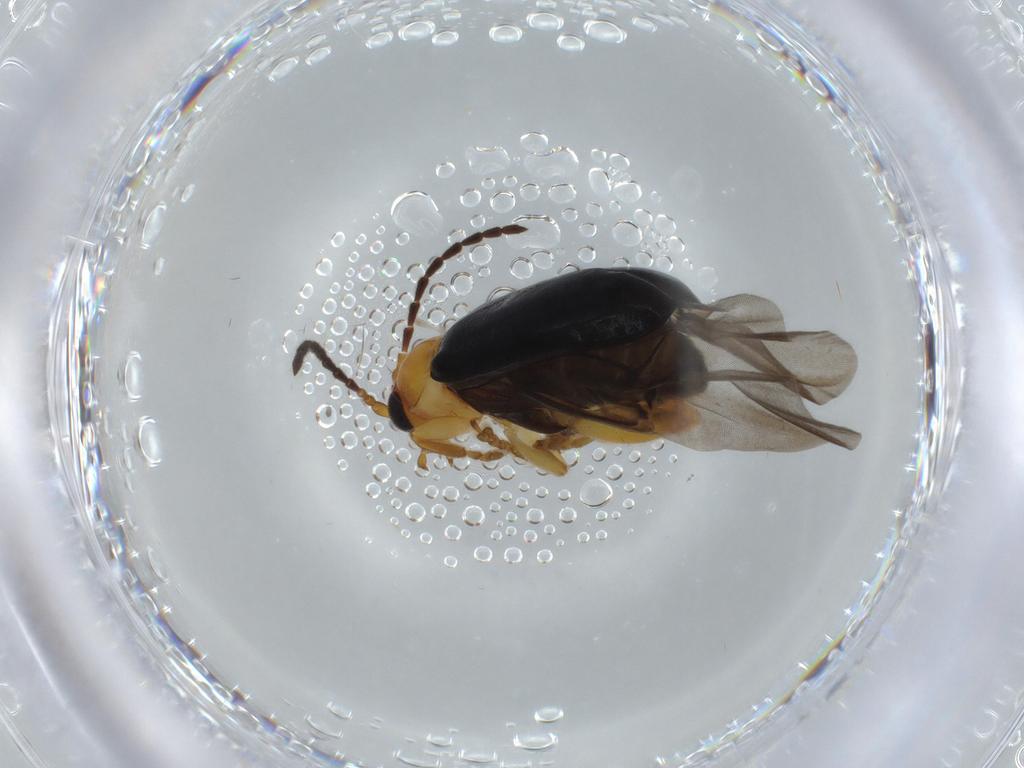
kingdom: Animalia
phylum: Arthropoda
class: Insecta
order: Coleoptera
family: Chrysomelidae
